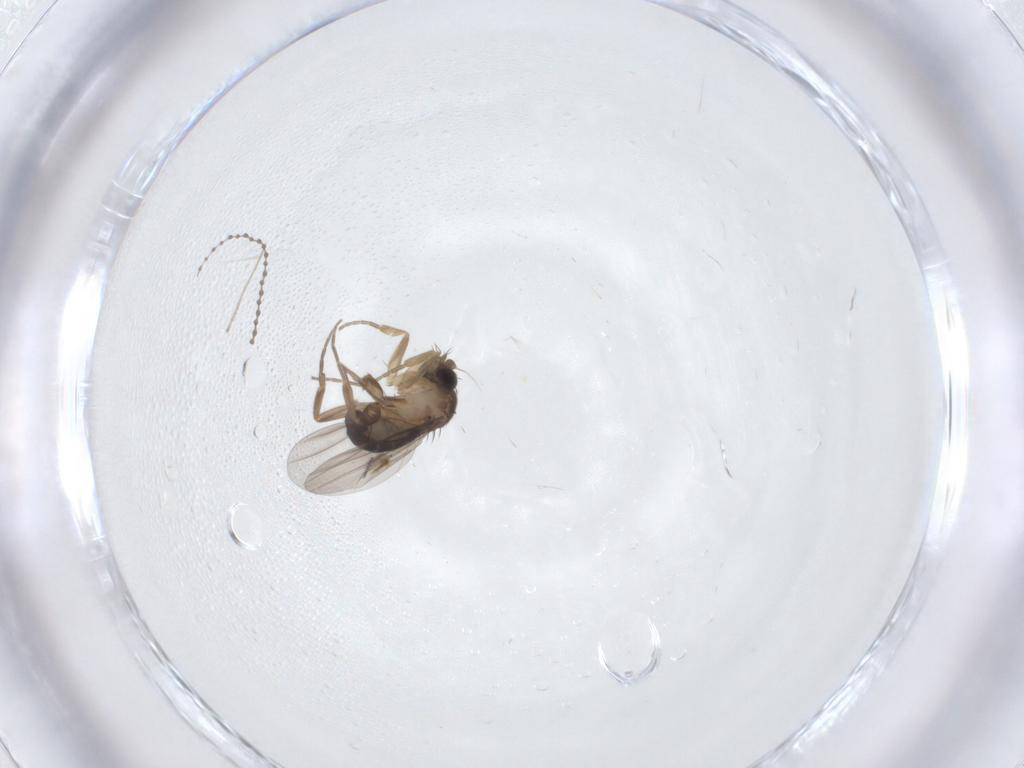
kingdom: Animalia
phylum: Arthropoda
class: Insecta
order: Diptera
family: Cecidomyiidae
